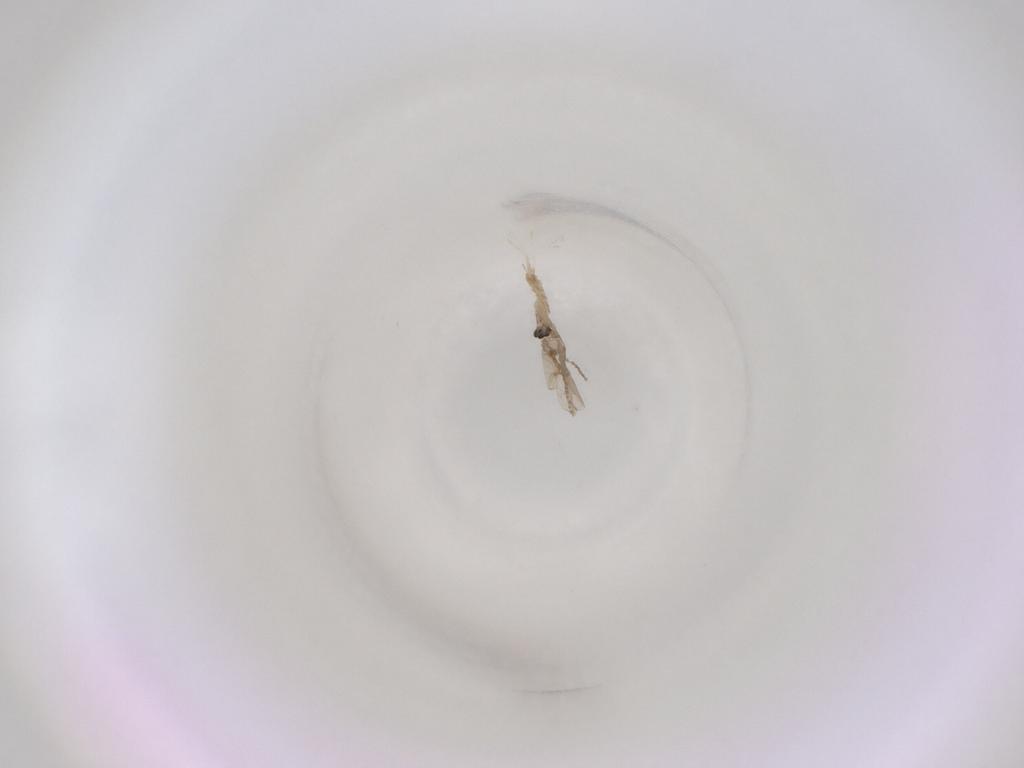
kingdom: Animalia
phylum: Arthropoda
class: Insecta
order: Diptera
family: Cecidomyiidae
